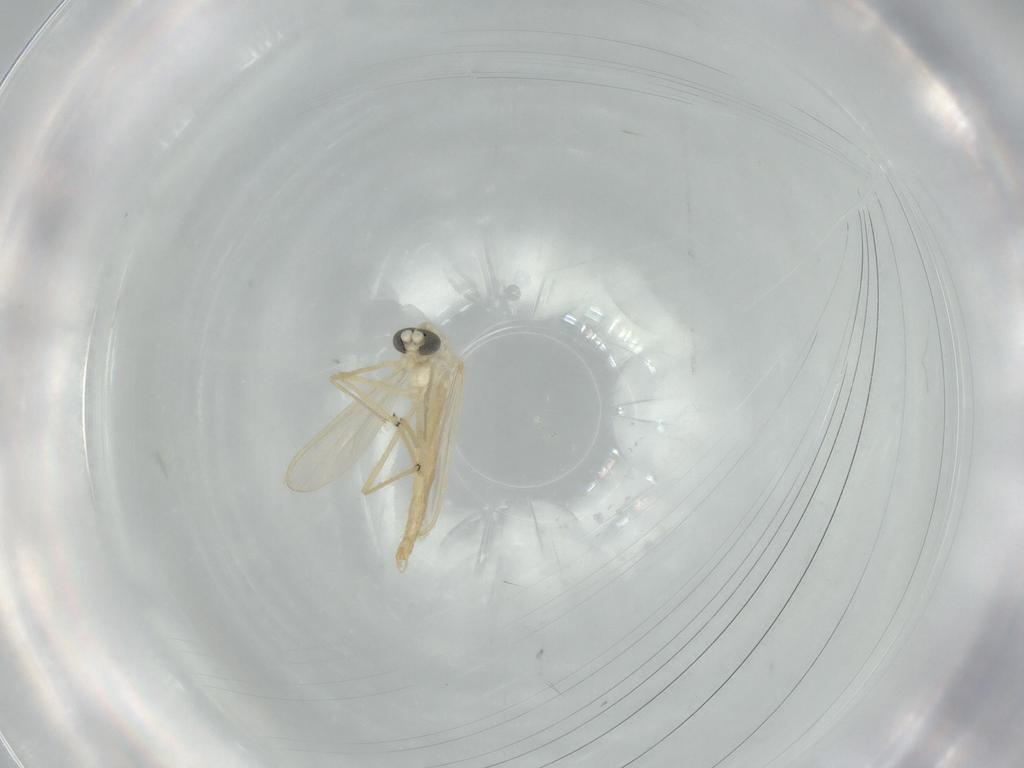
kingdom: Animalia
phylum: Arthropoda
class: Insecta
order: Diptera
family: Chironomidae
